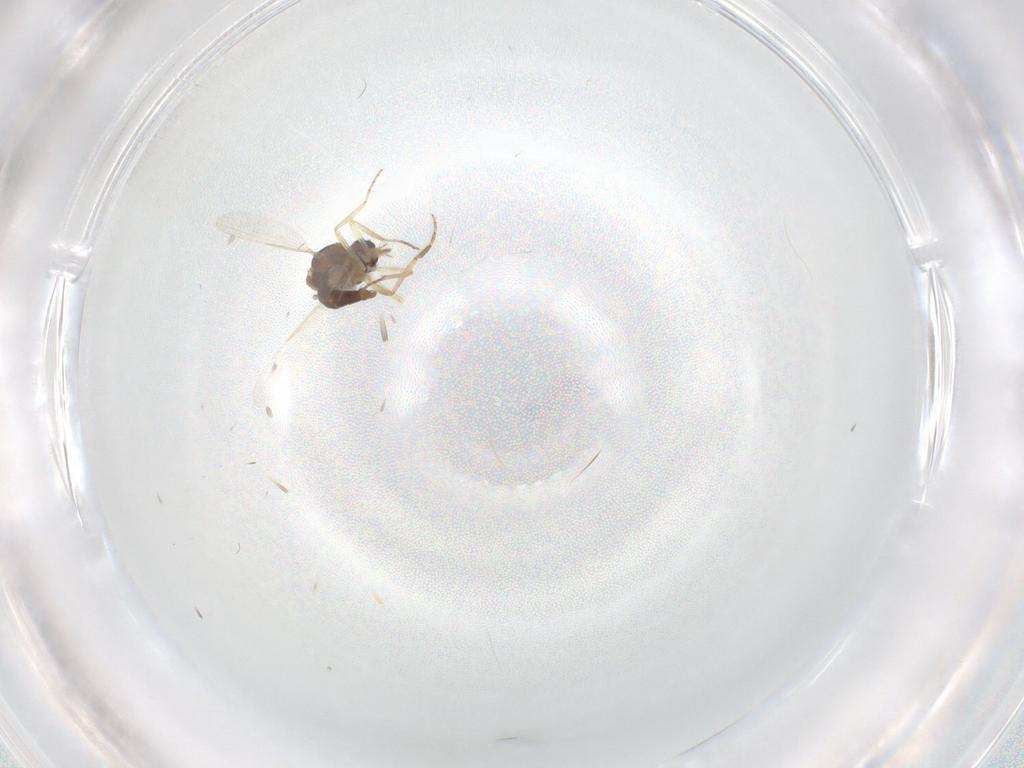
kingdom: Animalia
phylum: Arthropoda
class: Insecta
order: Diptera
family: Ceratopogonidae
